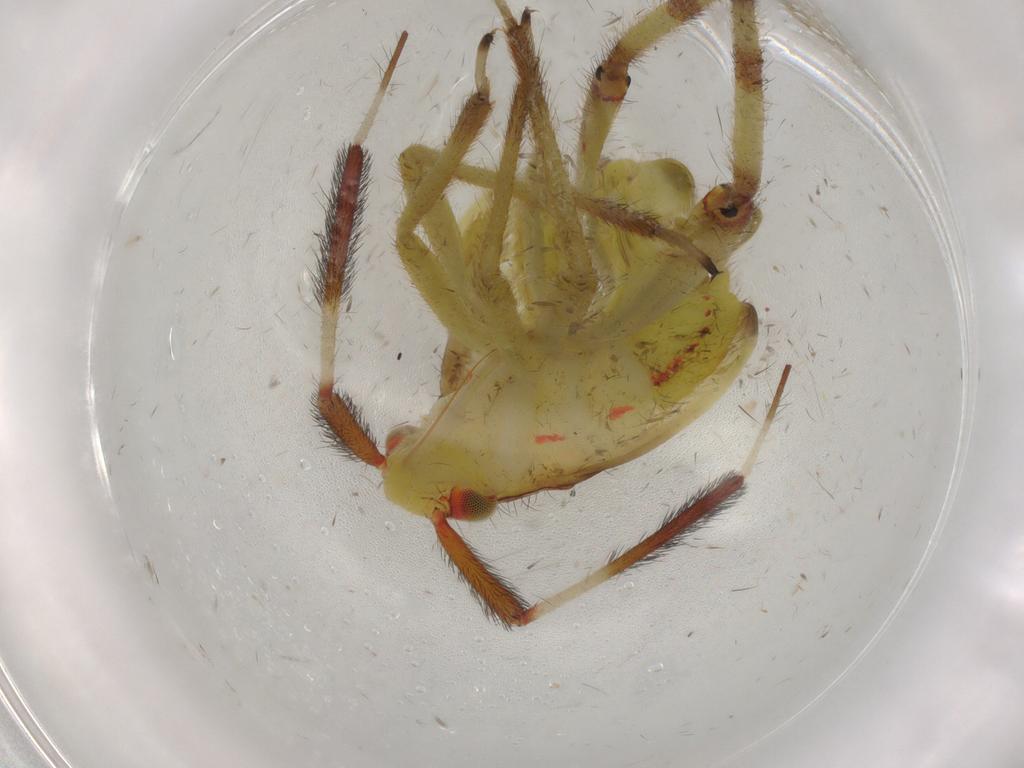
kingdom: Animalia
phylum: Arthropoda
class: Insecta
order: Hemiptera
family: Cicadellidae
